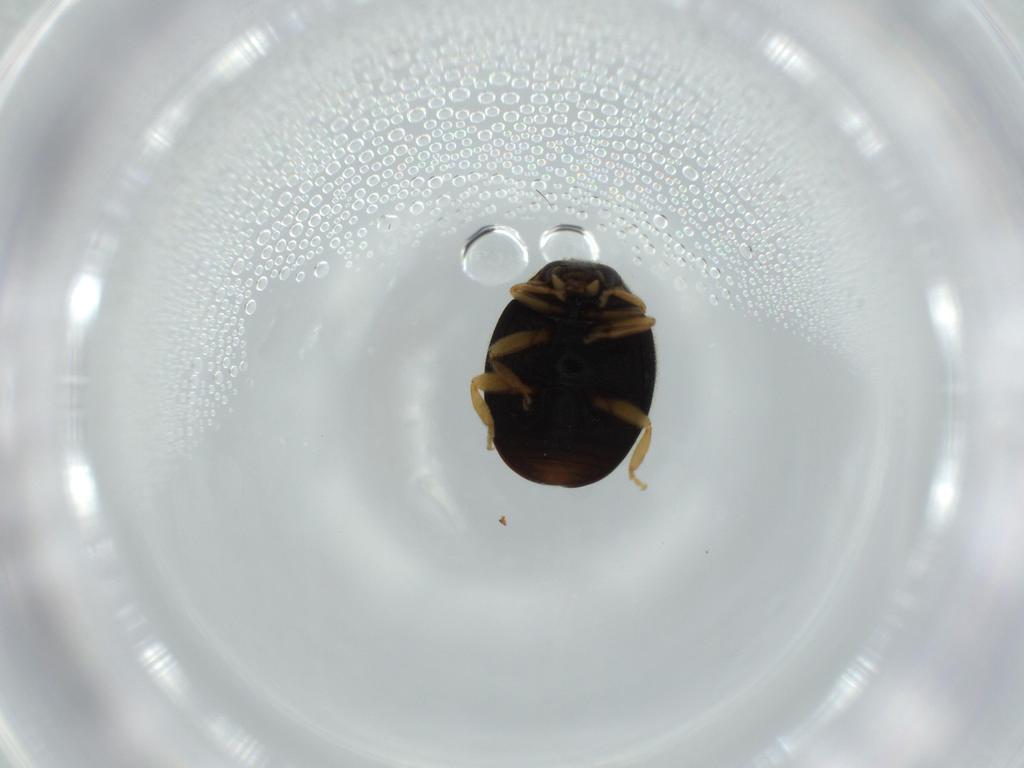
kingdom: Animalia
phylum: Arthropoda
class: Insecta
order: Coleoptera
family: Coccinellidae
